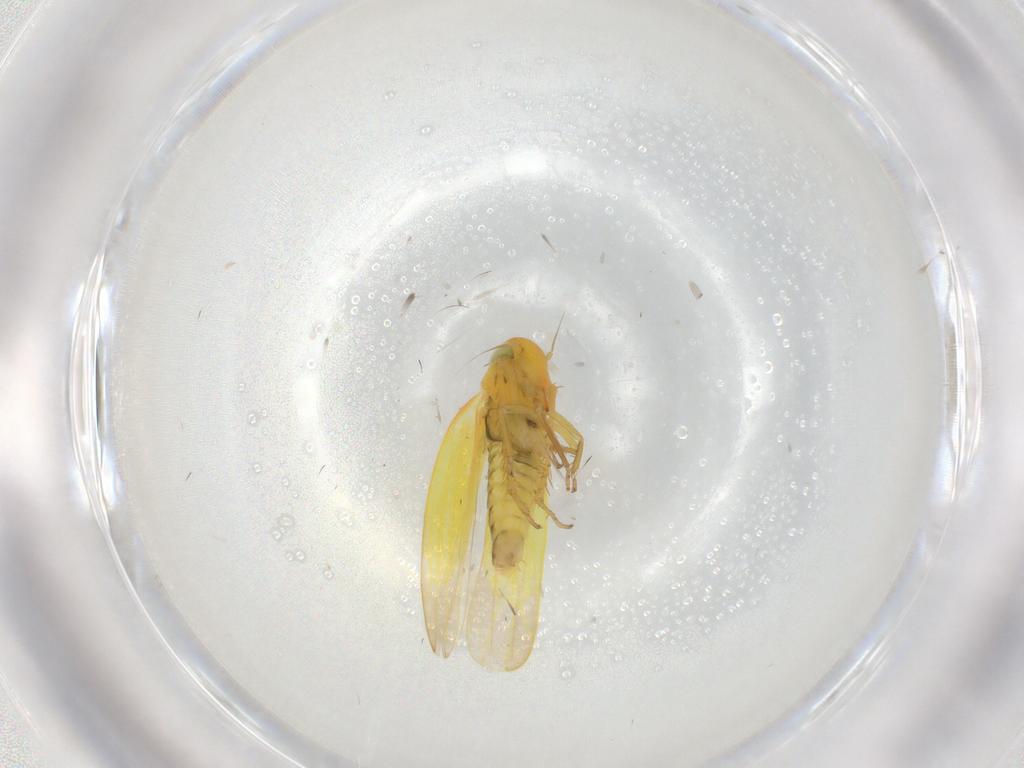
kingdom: Animalia
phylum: Arthropoda
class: Insecta
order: Hemiptera
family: Cicadellidae
